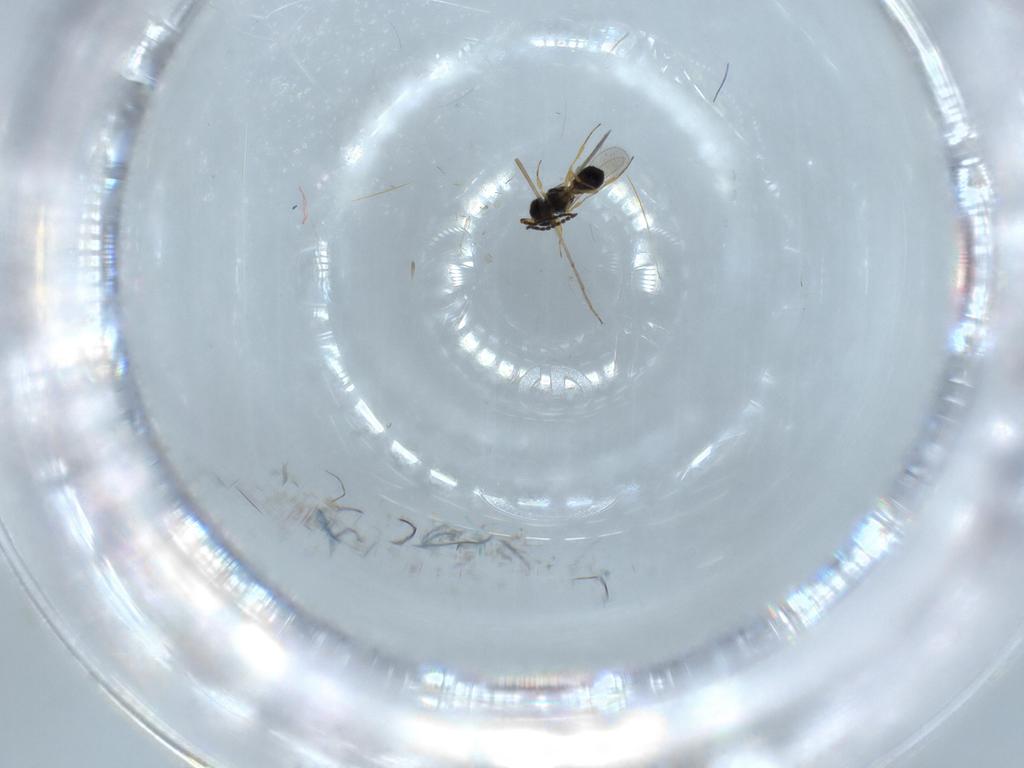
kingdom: Animalia
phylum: Arthropoda
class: Insecta
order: Hymenoptera
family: Scelionidae
